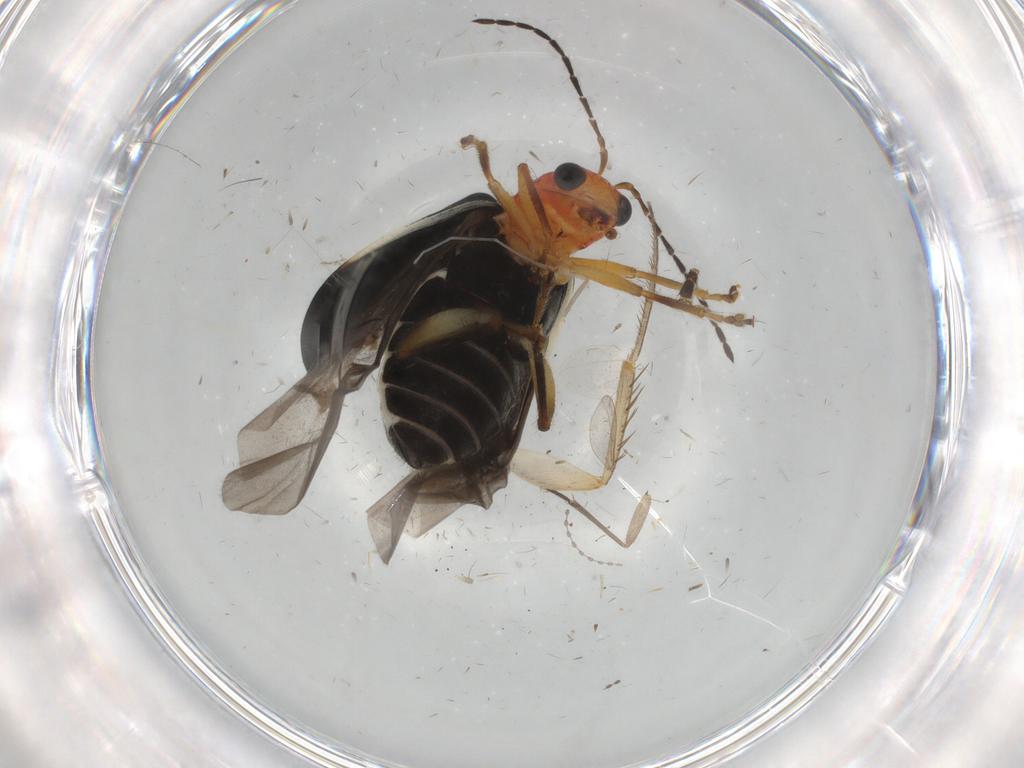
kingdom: Animalia
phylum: Arthropoda
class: Insecta
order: Coleoptera
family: Chrysomelidae
